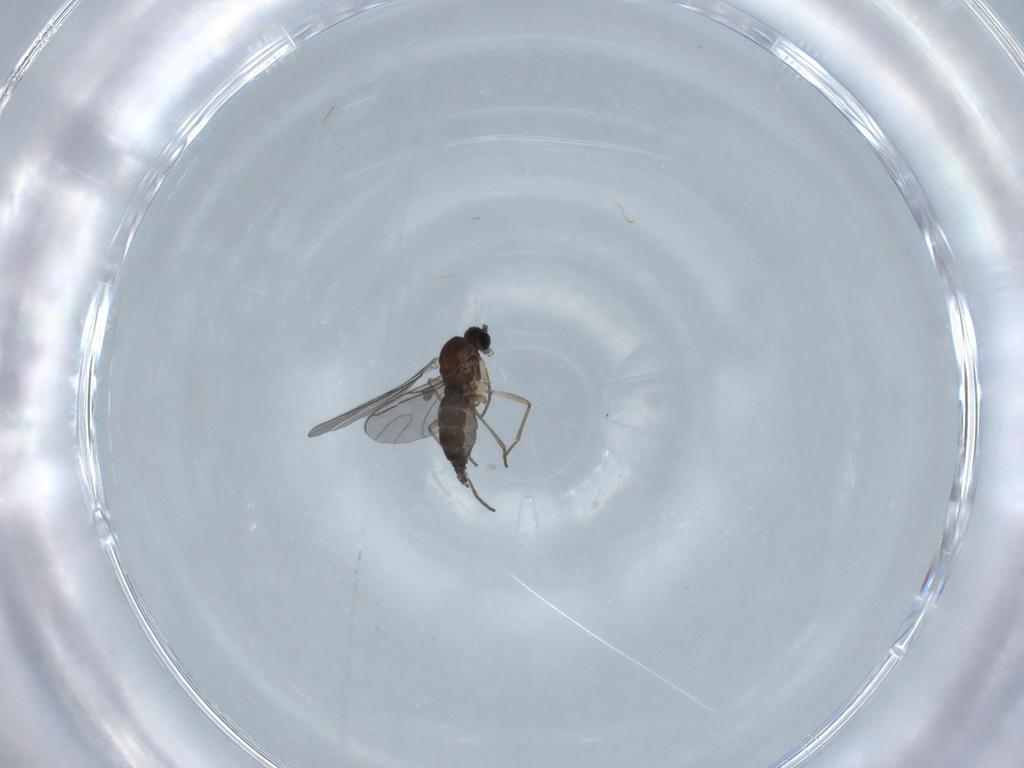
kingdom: Animalia
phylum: Arthropoda
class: Insecta
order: Diptera
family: Sciaridae
